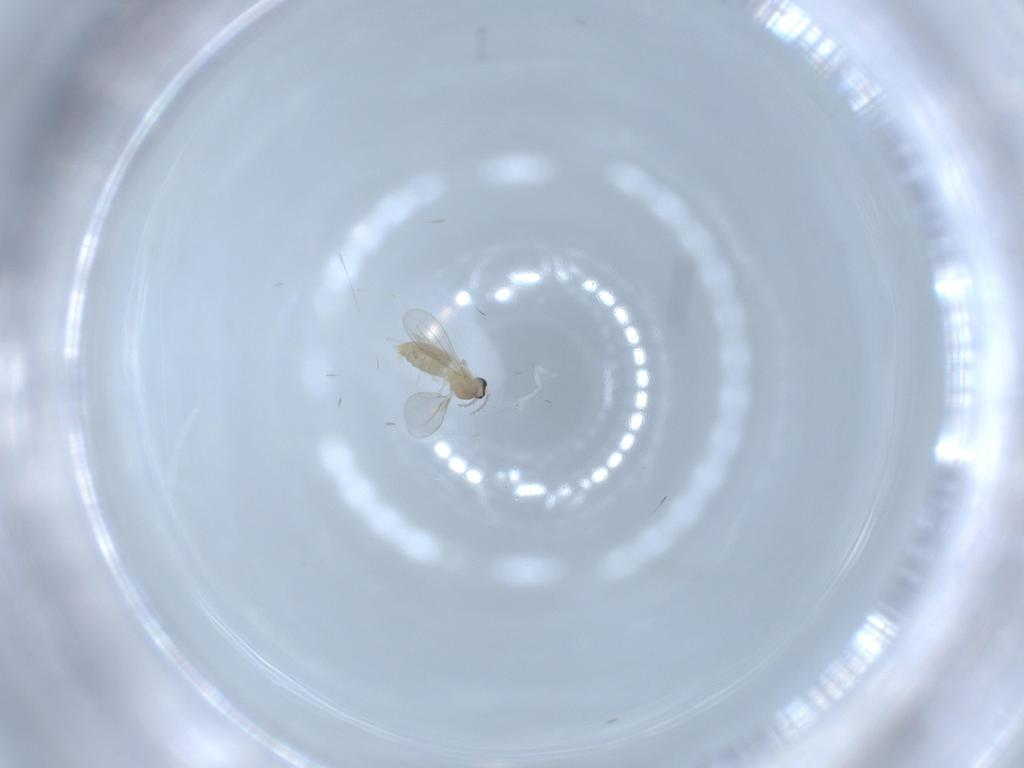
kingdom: Animalia
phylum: Arthropoda
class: Insecta
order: Diptera
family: Cecidomyiidae
